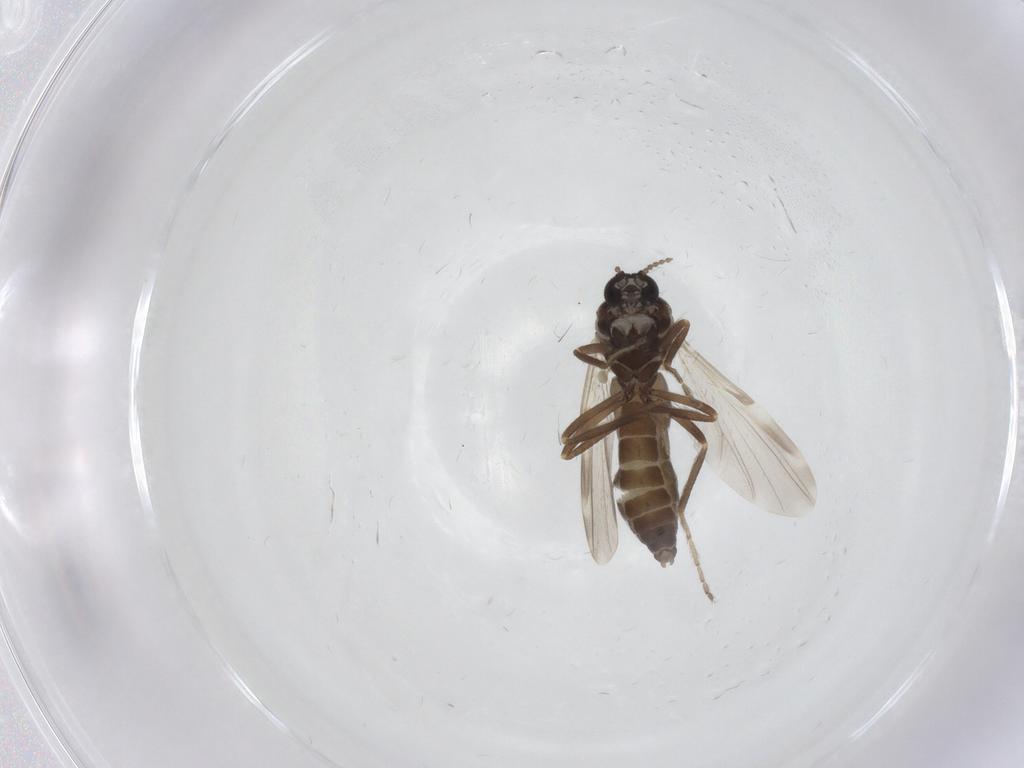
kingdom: Animalia
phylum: Arthropoda
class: Insecta
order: Diptera
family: Ceratopogonidae
